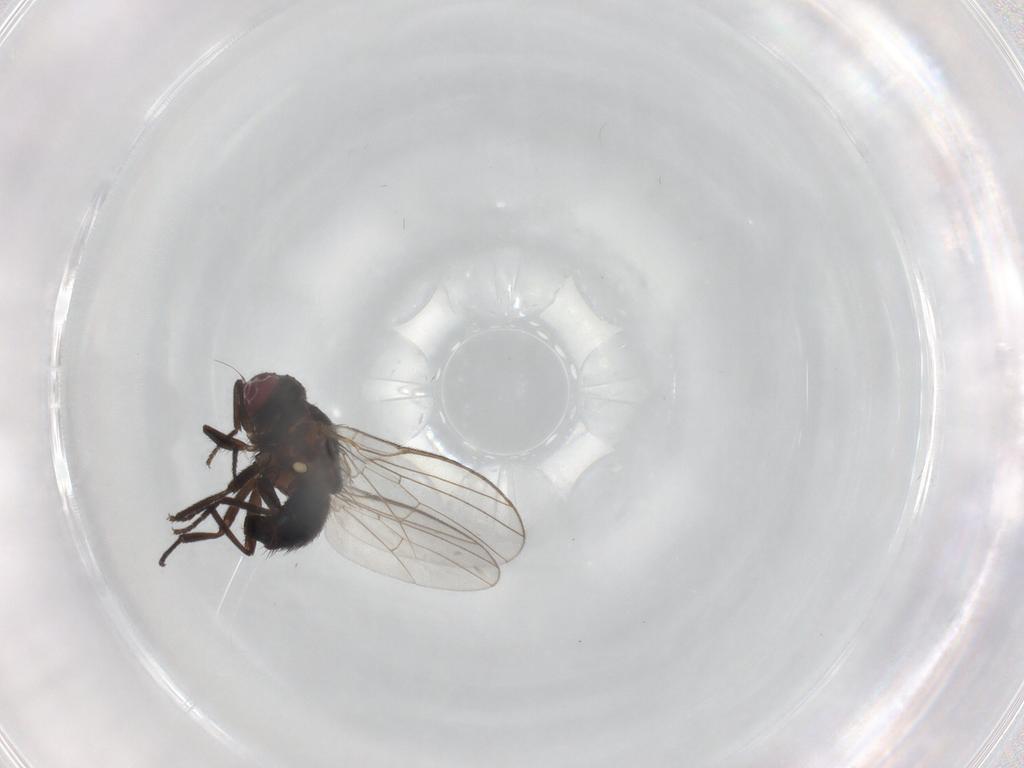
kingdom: Animalia
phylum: Arthropoda
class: Insecta
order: Diptera
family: Agromyzidae
